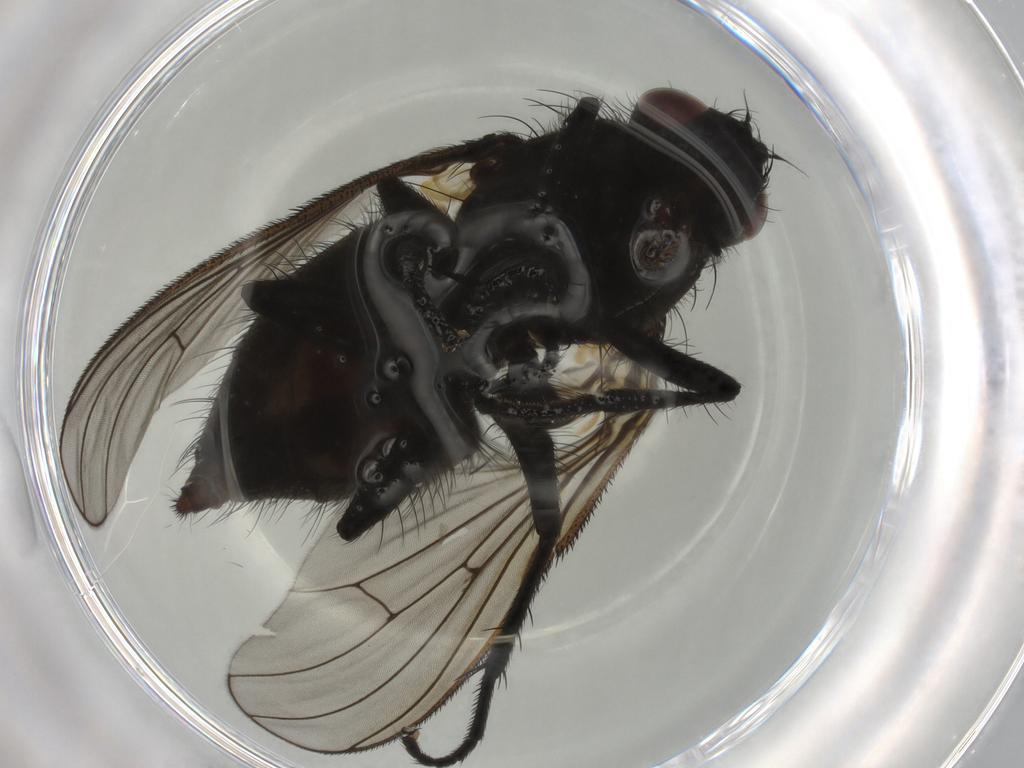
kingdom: Animalia
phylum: Arthropoda
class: Insecta
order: Diptera
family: Muscidae
